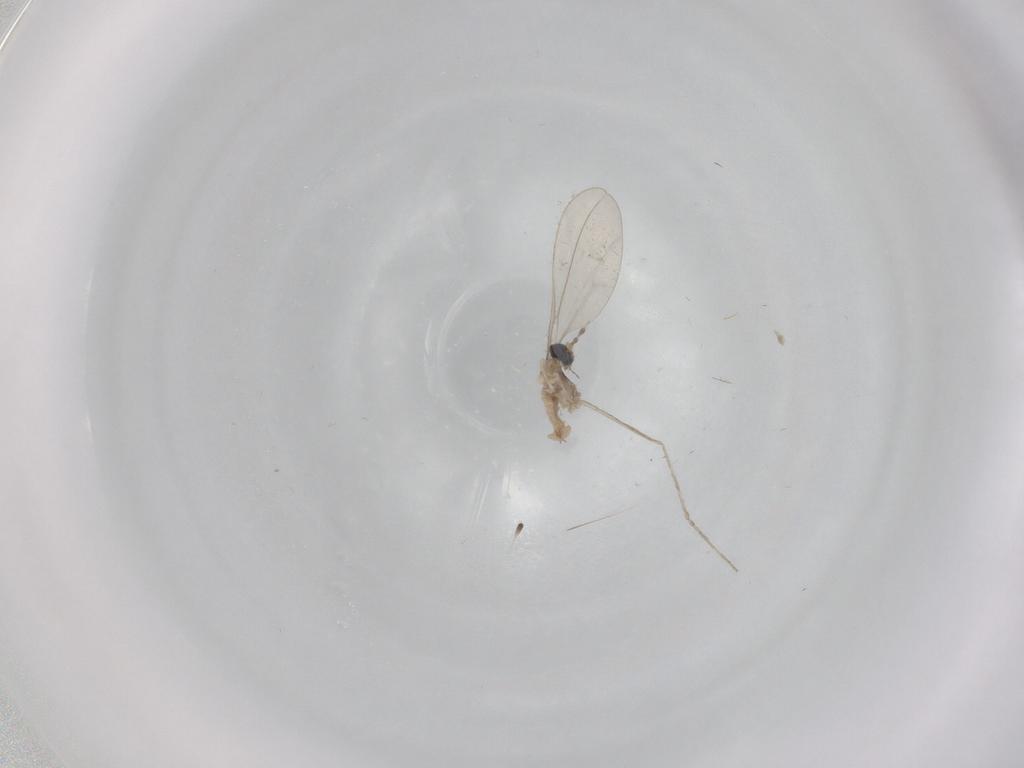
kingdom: Animalia
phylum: Arthropoda
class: Insecta
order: Diptera
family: Cecidomyiidae
